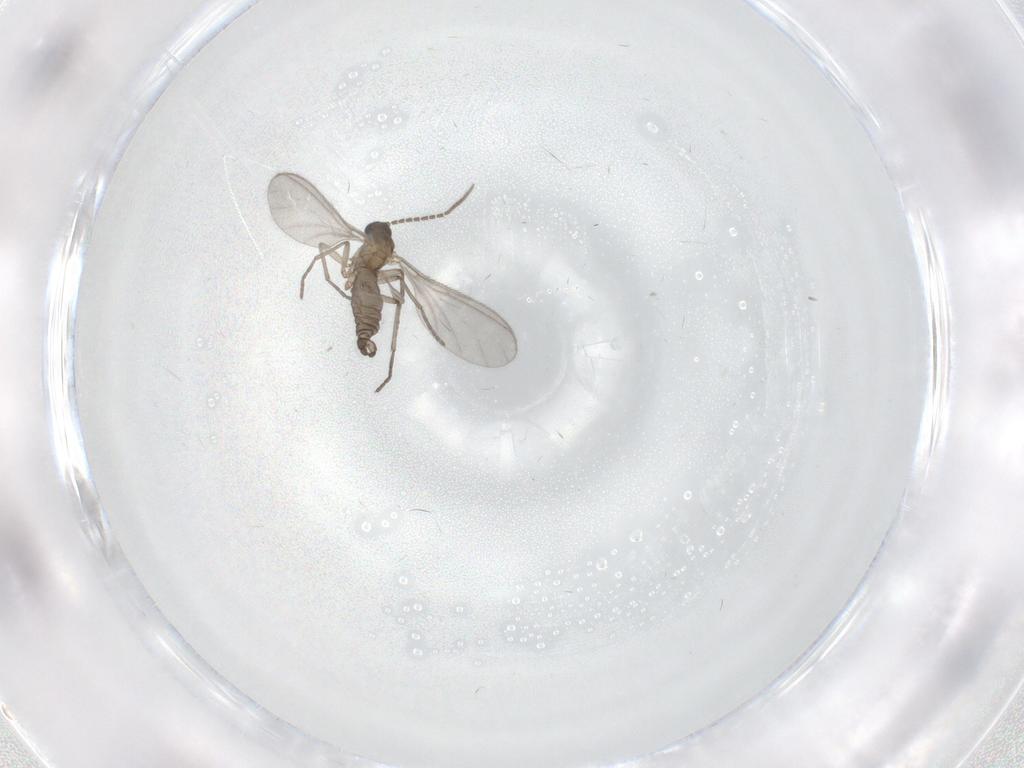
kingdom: Animalia
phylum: Arthropoda
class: Insecta
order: Diptera
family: Sciaridae
